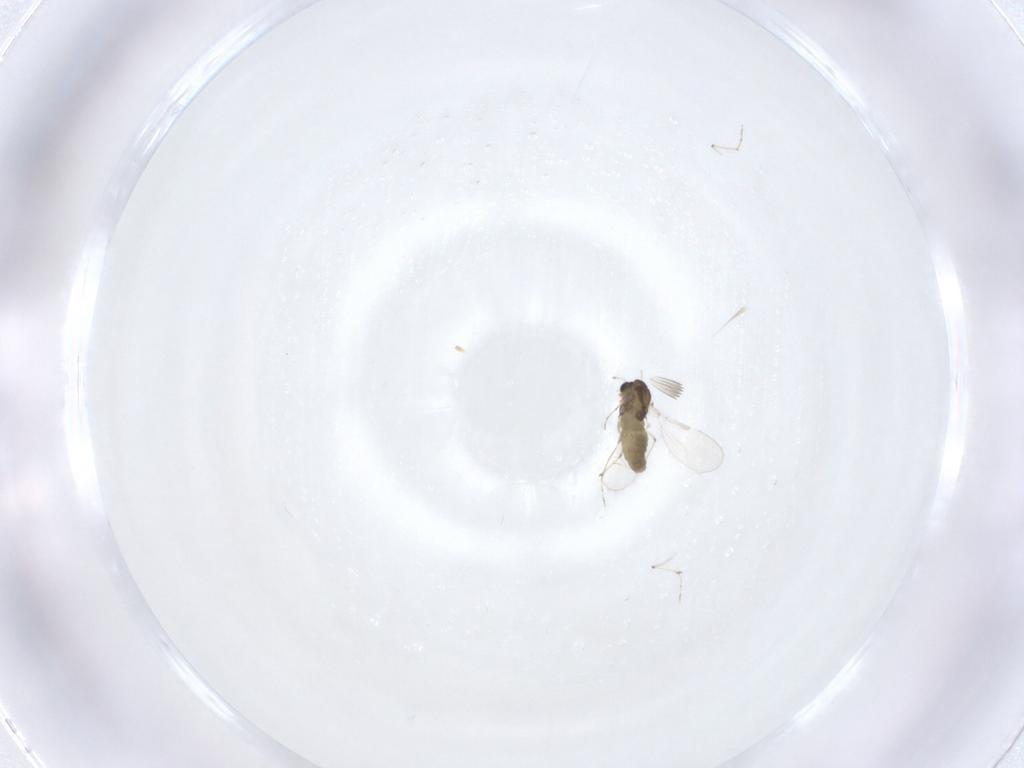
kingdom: Animalia
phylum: Arthropoda
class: Insecta
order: Diptera
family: Chironomidae
